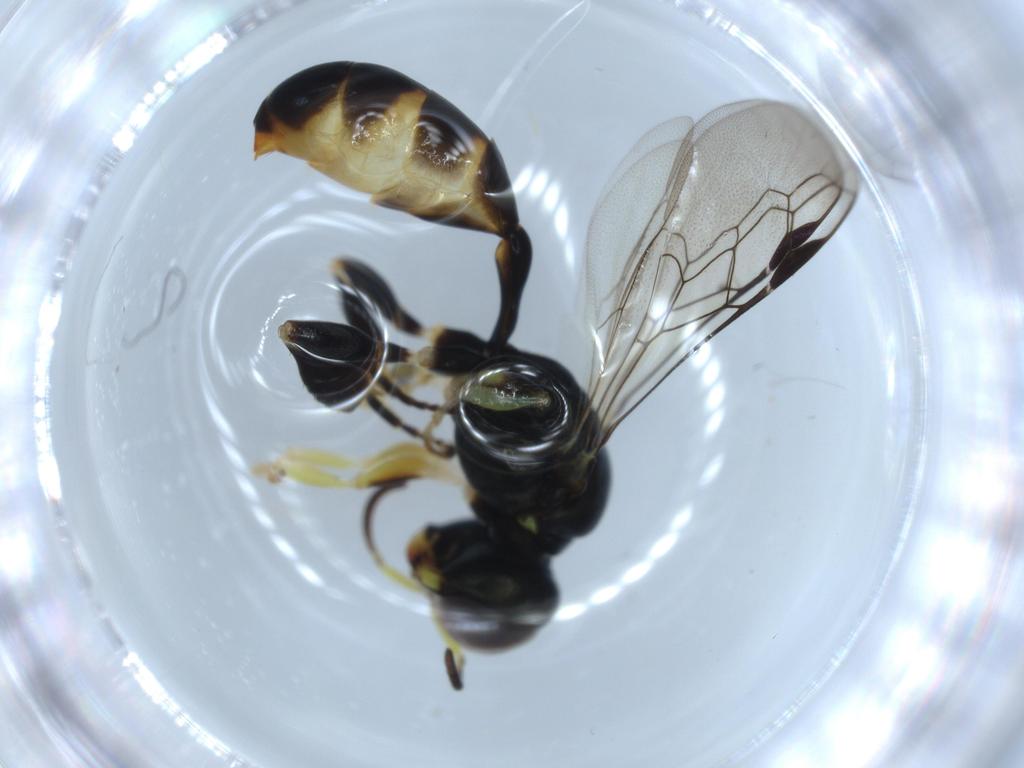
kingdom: Animalia
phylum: Arthropoda
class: Insecta
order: Hymenoptera
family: Crabronidae
